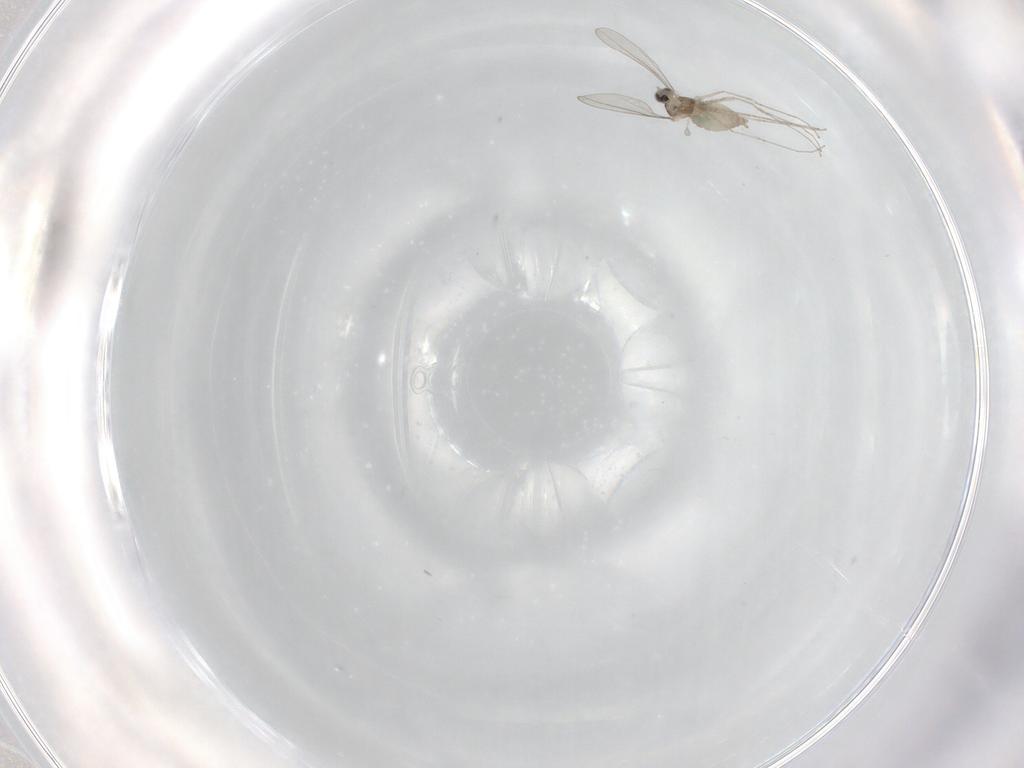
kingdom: Animalia
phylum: Arthropoda
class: Insecta
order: Diptera
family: Cecidomyiidae
